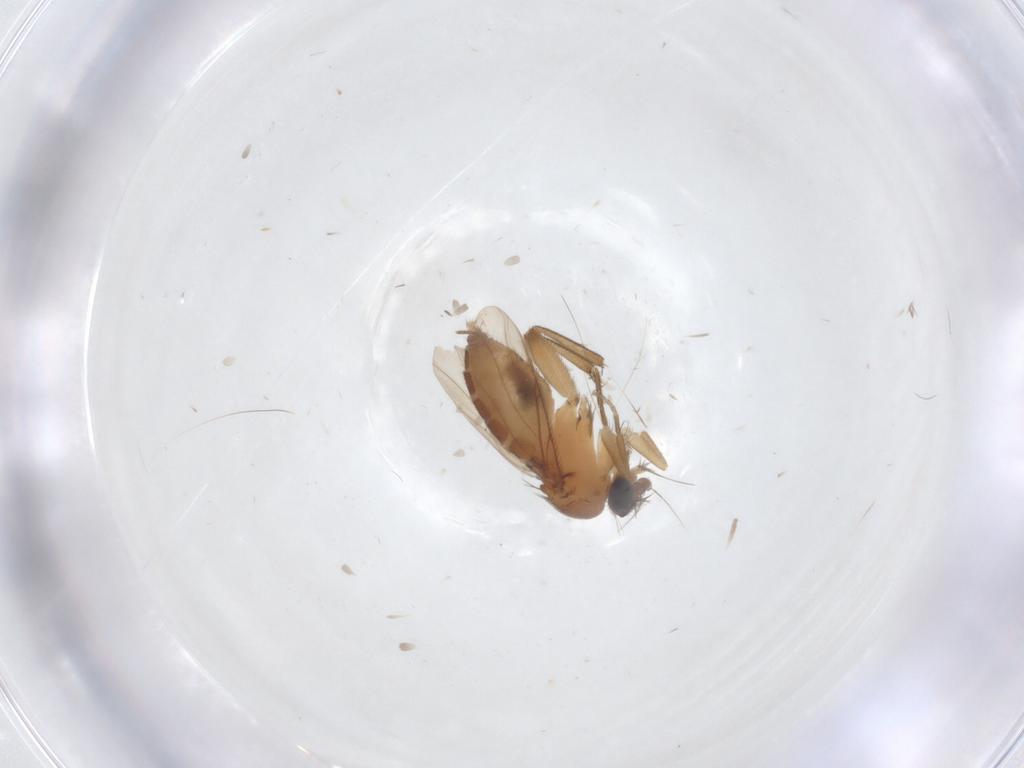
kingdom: Animalia
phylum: Arthropoda
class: Insecta
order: Diptera
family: Phoridae
